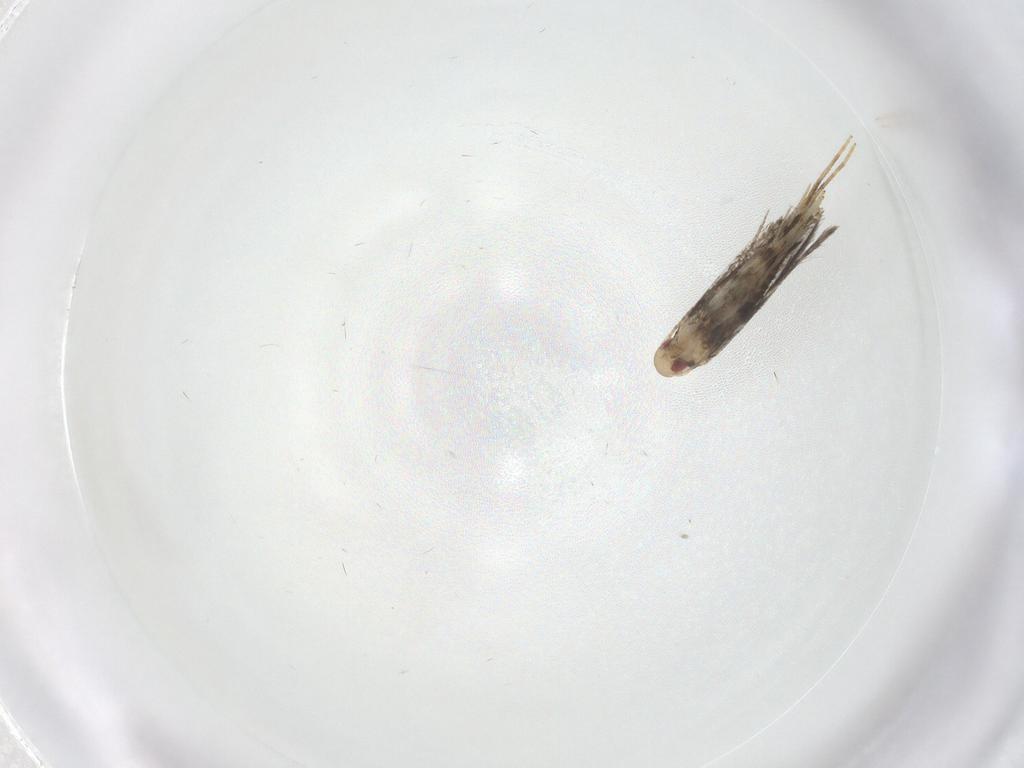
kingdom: Animalia
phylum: Arthropoda
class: Insecta
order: Lepidoptera
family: Gracillariidae
